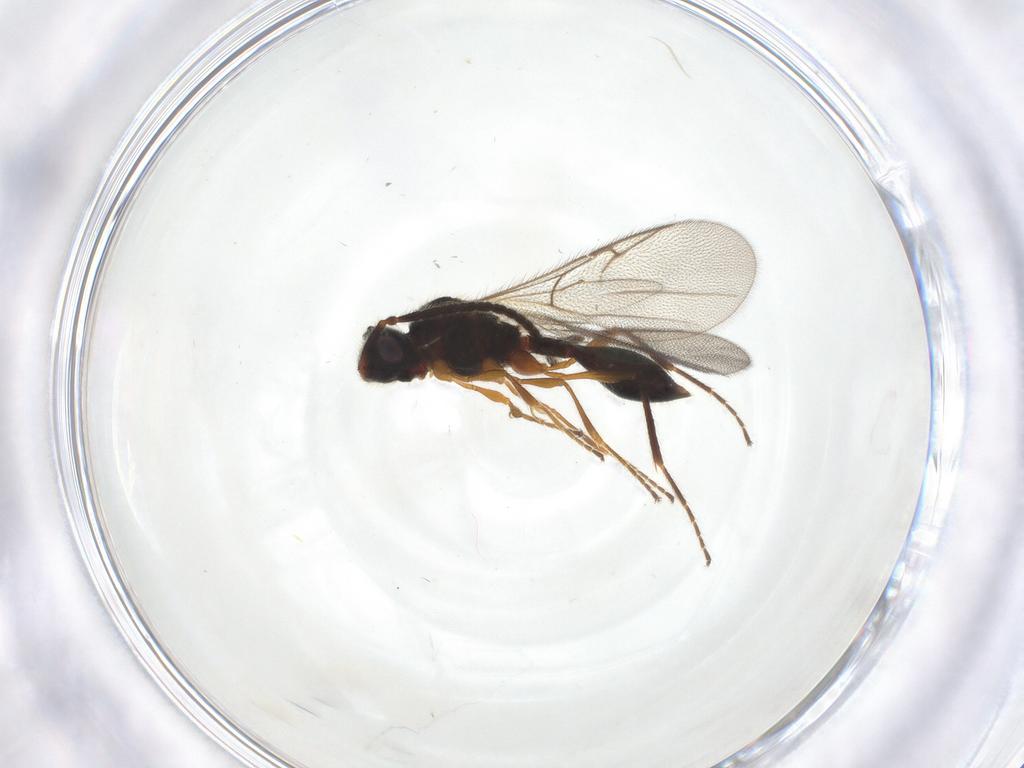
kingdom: Animalia
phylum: Arthropoda
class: Insecta
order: Hymenoptera
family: Diapriidae
